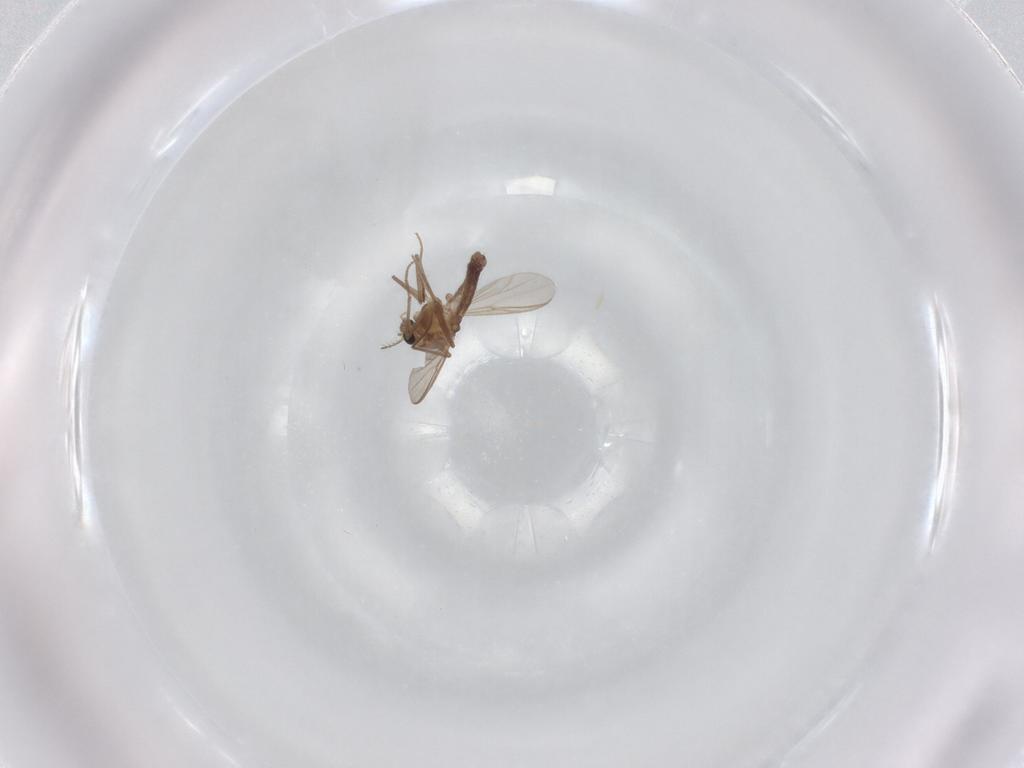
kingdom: Animalia
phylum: Arthropoda
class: Insecta
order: Diptera
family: Chironomidae
